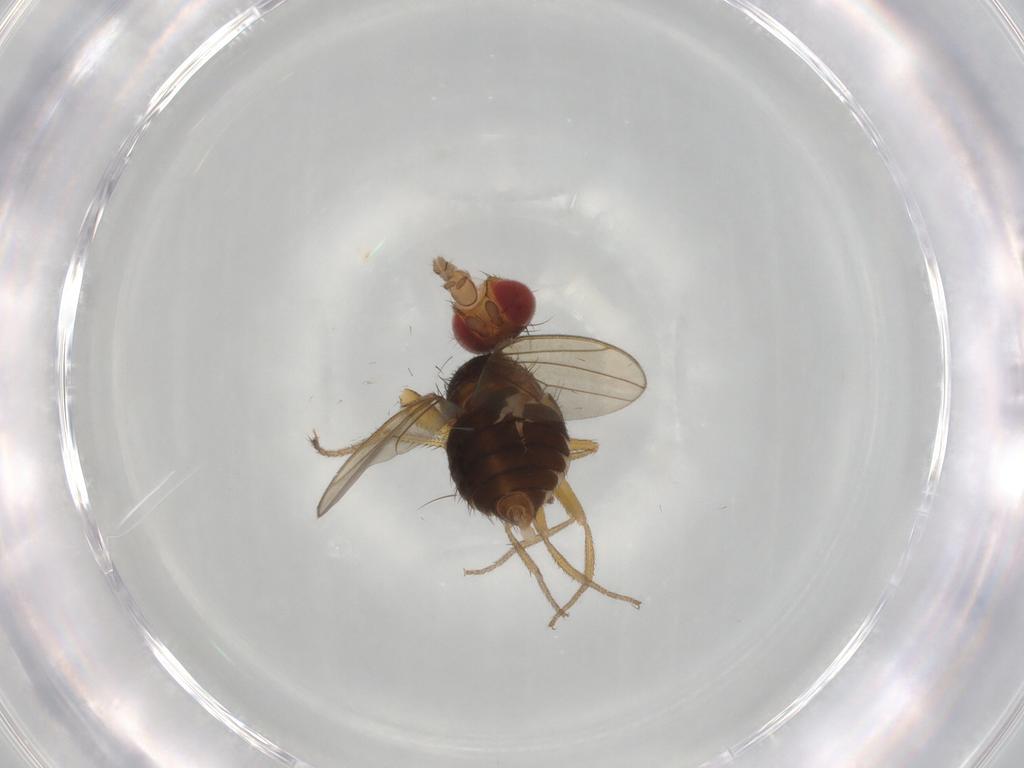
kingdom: Animalia
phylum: Arthropoda
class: Insecta
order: Diptera
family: Chironomidae
